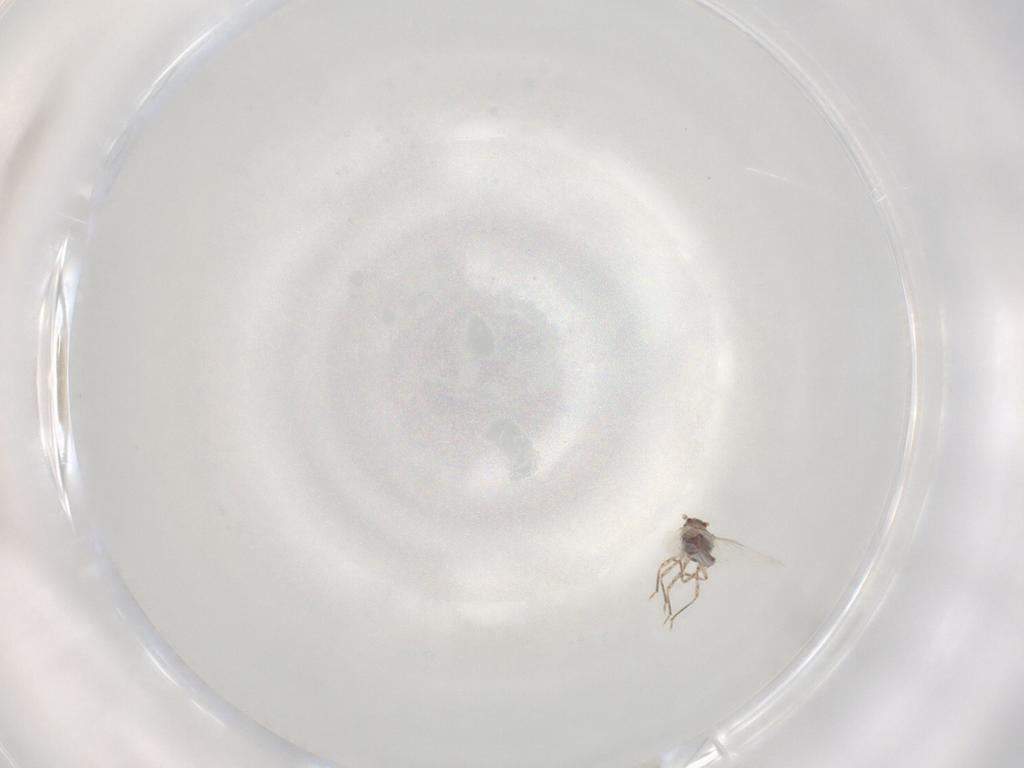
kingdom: Animalia
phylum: Arthropoda
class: Insecta
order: Hemiptera
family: Pseudococcidae
